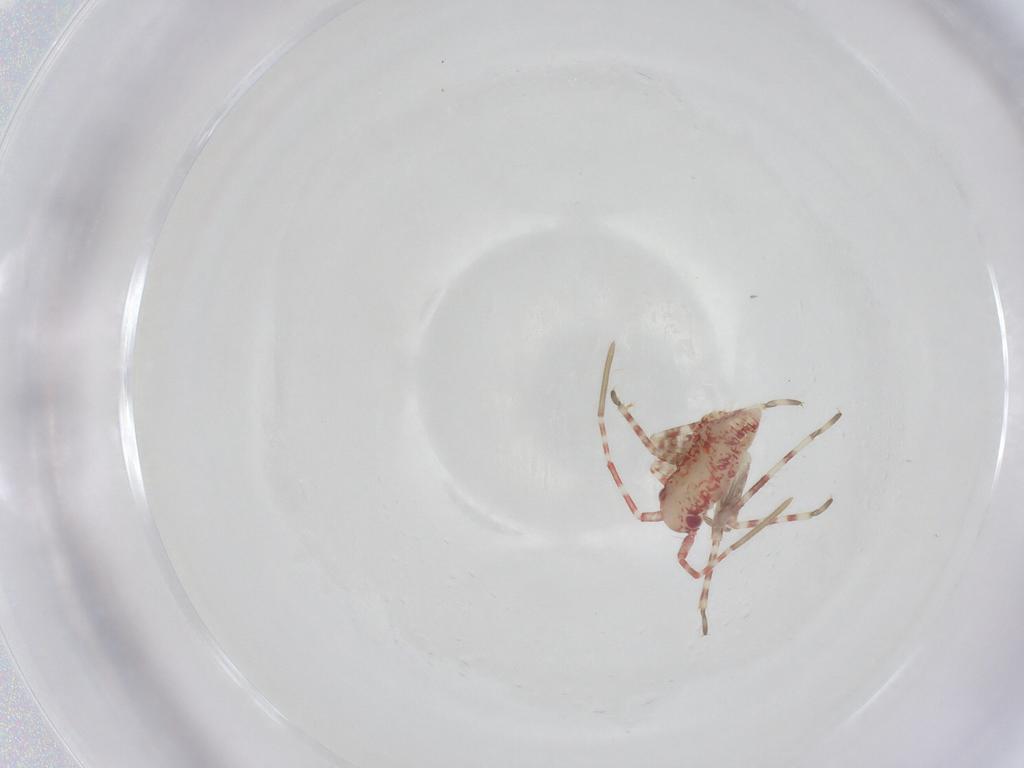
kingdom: Animalia
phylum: Arthropoda
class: Insecta
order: Hemiptera
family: Miridae
